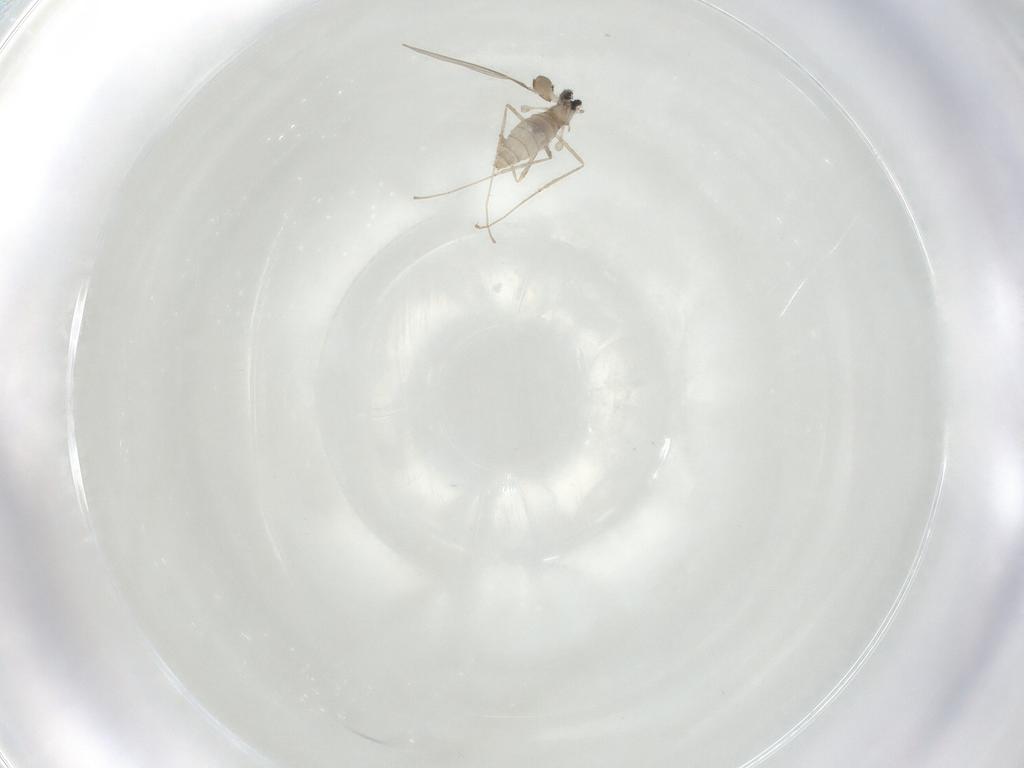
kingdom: Animalia
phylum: Arthropoda
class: Insecta
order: Diptera
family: Cecidomyiidae
